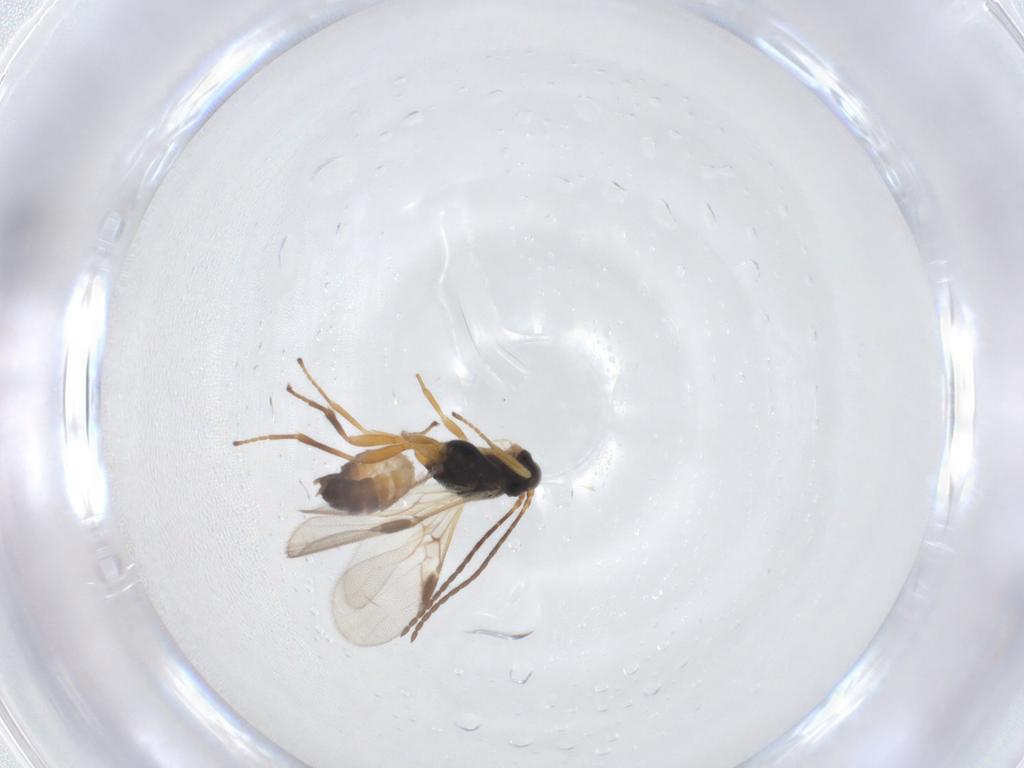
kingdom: Animalia
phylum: Arthropoda
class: Insecta
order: Hymenoptera
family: Braconidae
